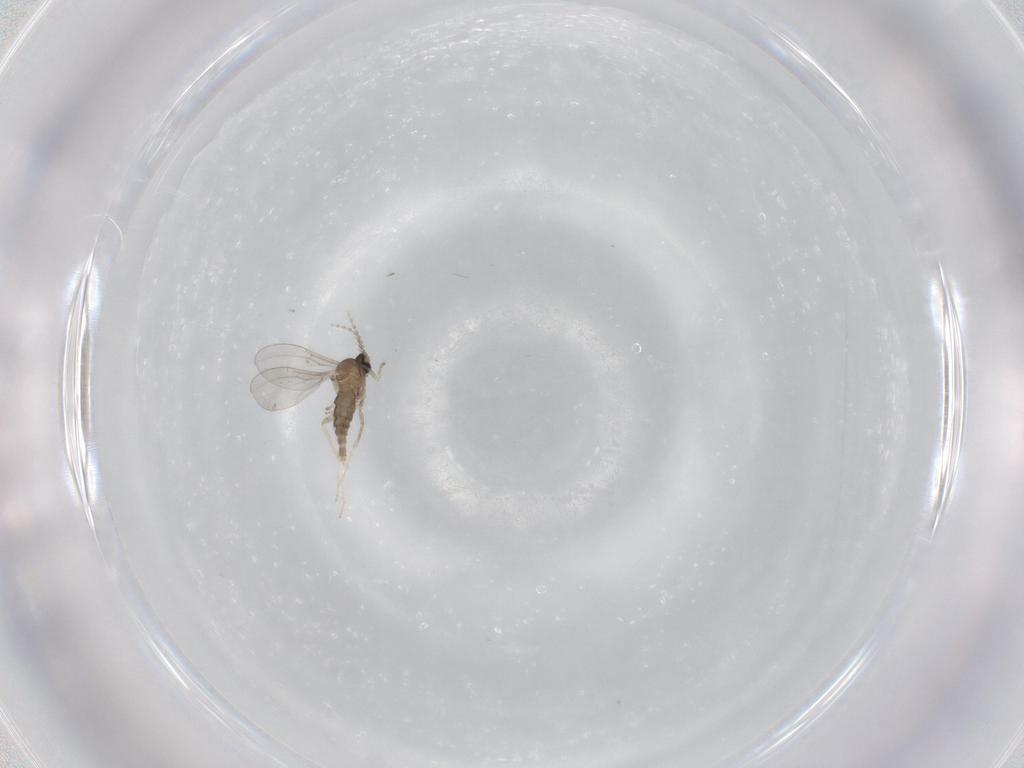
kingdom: Animalia
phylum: Arthropoda
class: Insecta
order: Diptera
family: Cecidomyiidae
